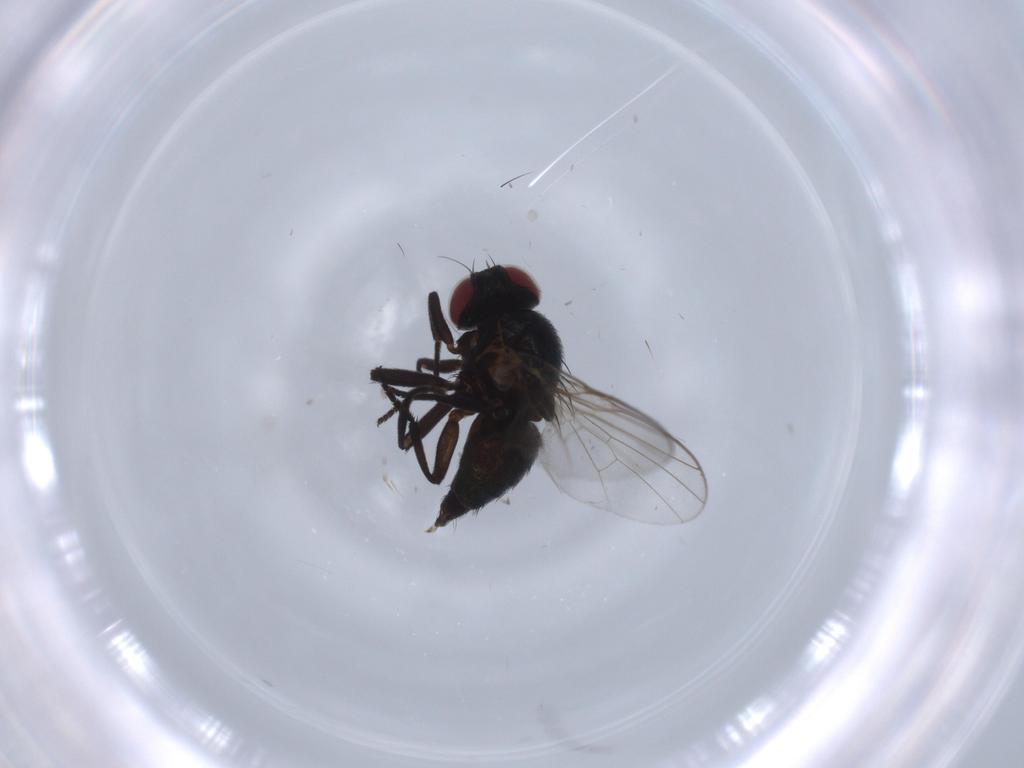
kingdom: Animalia
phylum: Arthropoda
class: Insecta
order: Diptera
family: Agromyzidae
